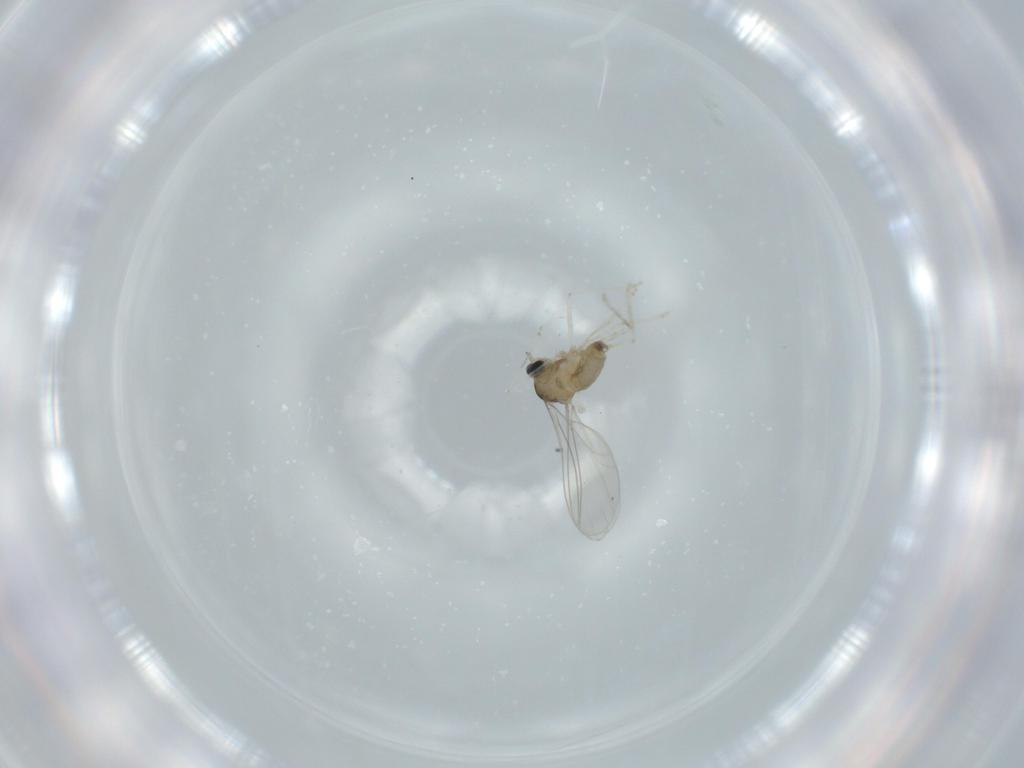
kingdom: Animalia
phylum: Arthropoda
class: Insecta
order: Diptera
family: Cecidomyiidae
